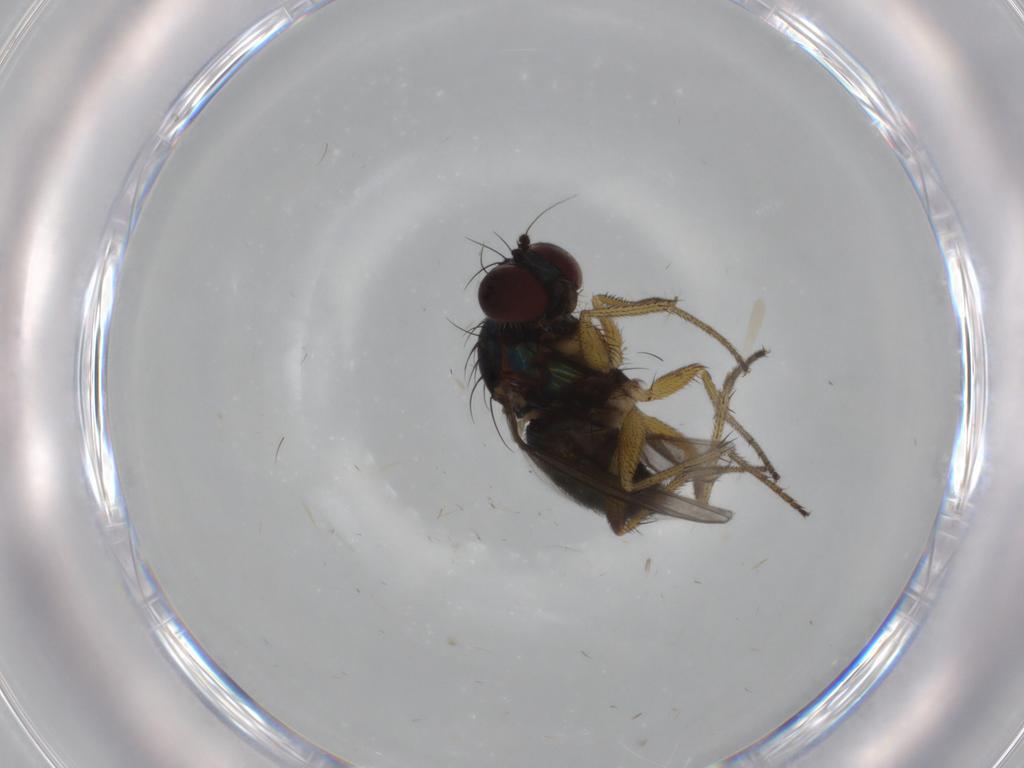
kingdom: Animalia
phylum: Arthropoda
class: Insecta
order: Diptera
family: Dolichopodidae
